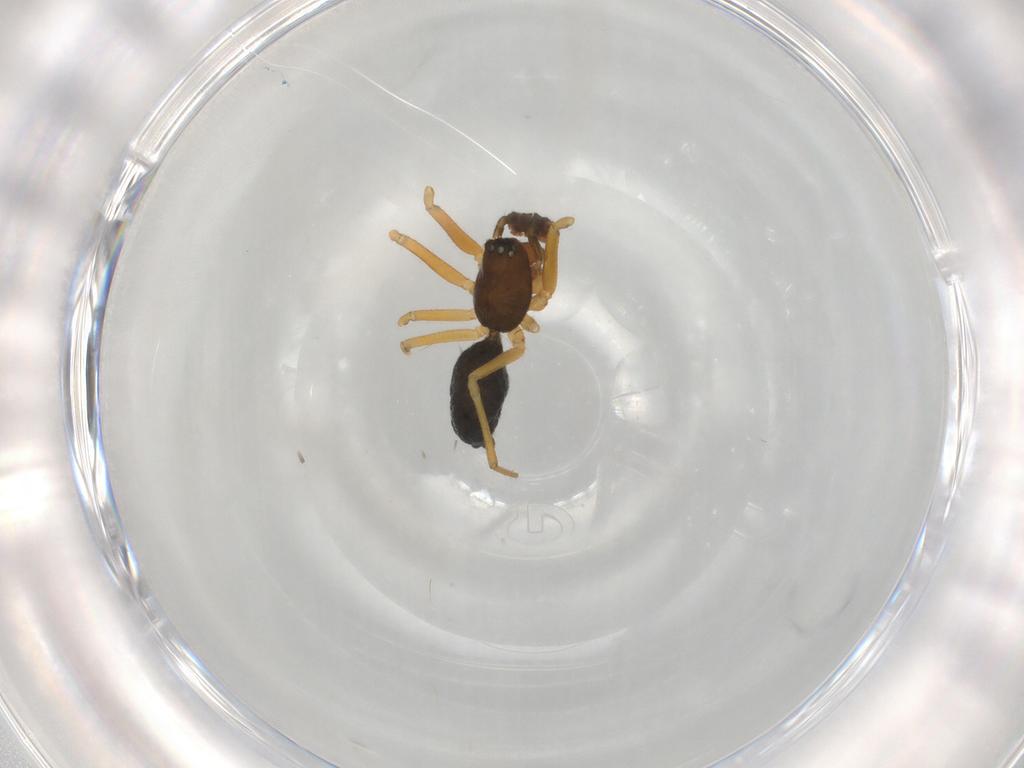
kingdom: Animalia
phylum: Arthropoda
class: Arachnida
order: Araneae
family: Linyphiidae
